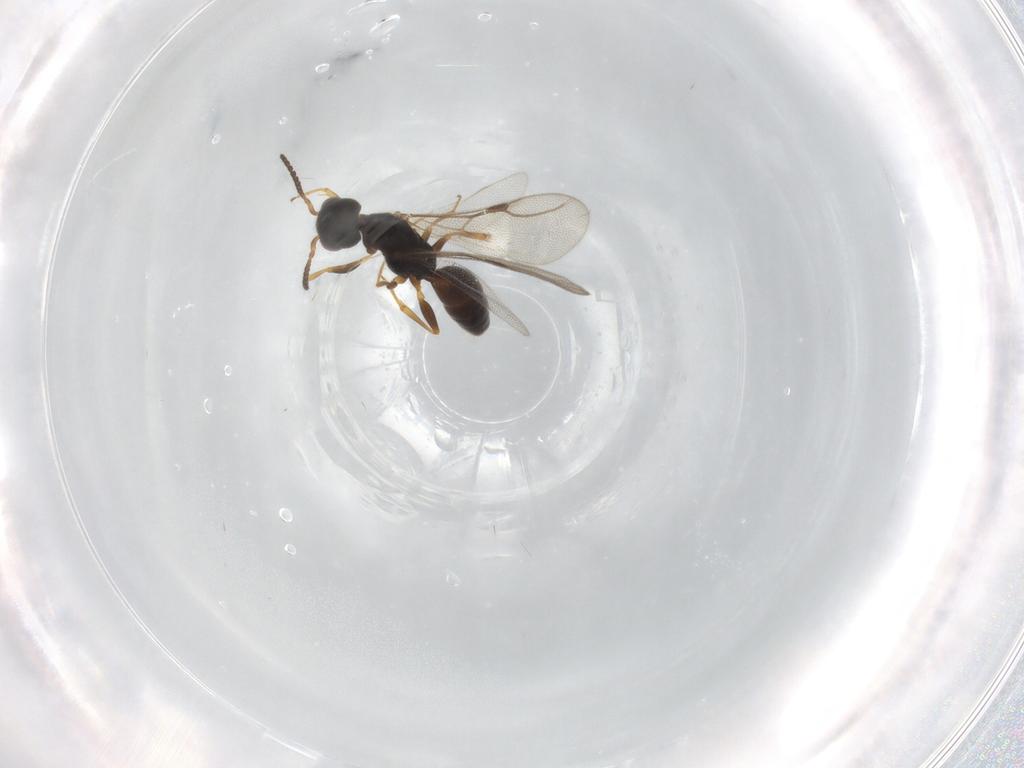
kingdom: Animalia
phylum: Arthropoda
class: Insecta
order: Hymenoptera
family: Bethylidae
